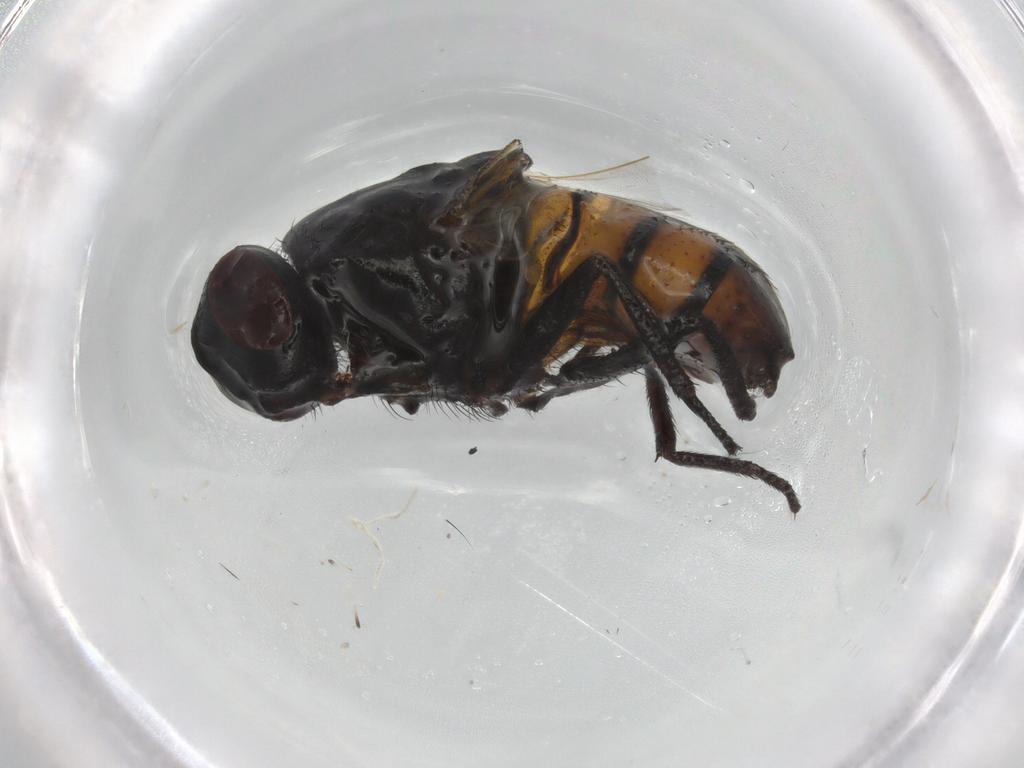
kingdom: Animalia
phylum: Arthropoda
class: Insecta
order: Diptera
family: Muscidae
